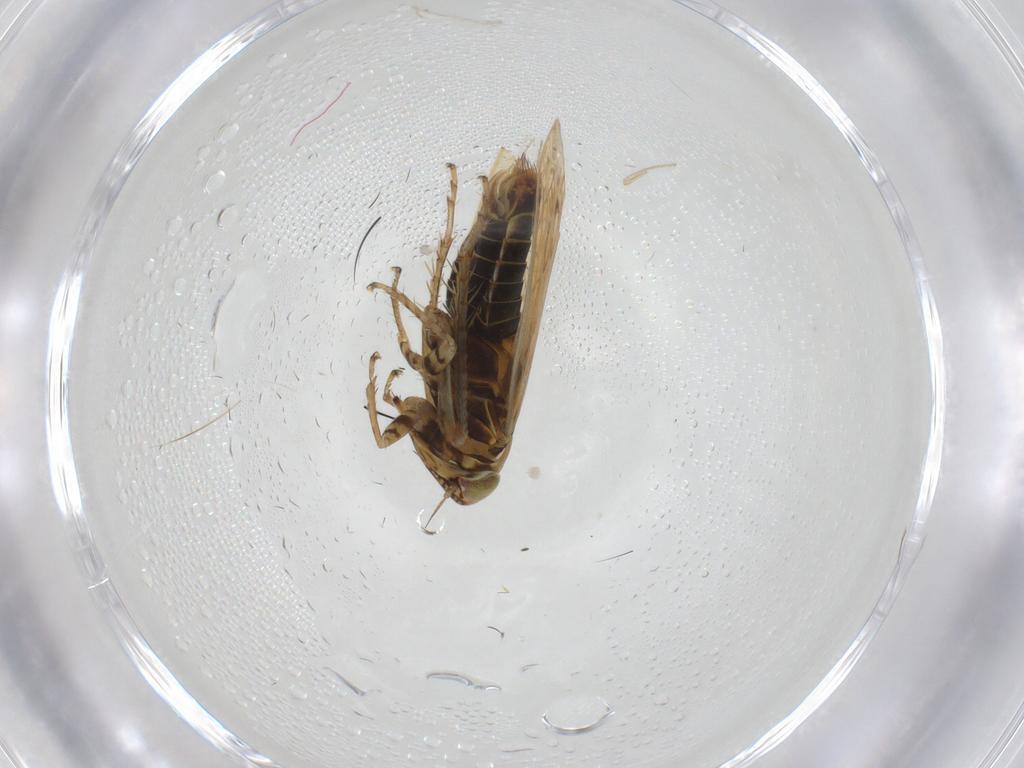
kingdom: Animalia
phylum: Arthropoda
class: Insecta
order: Hemiptera
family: Cicadellidae
